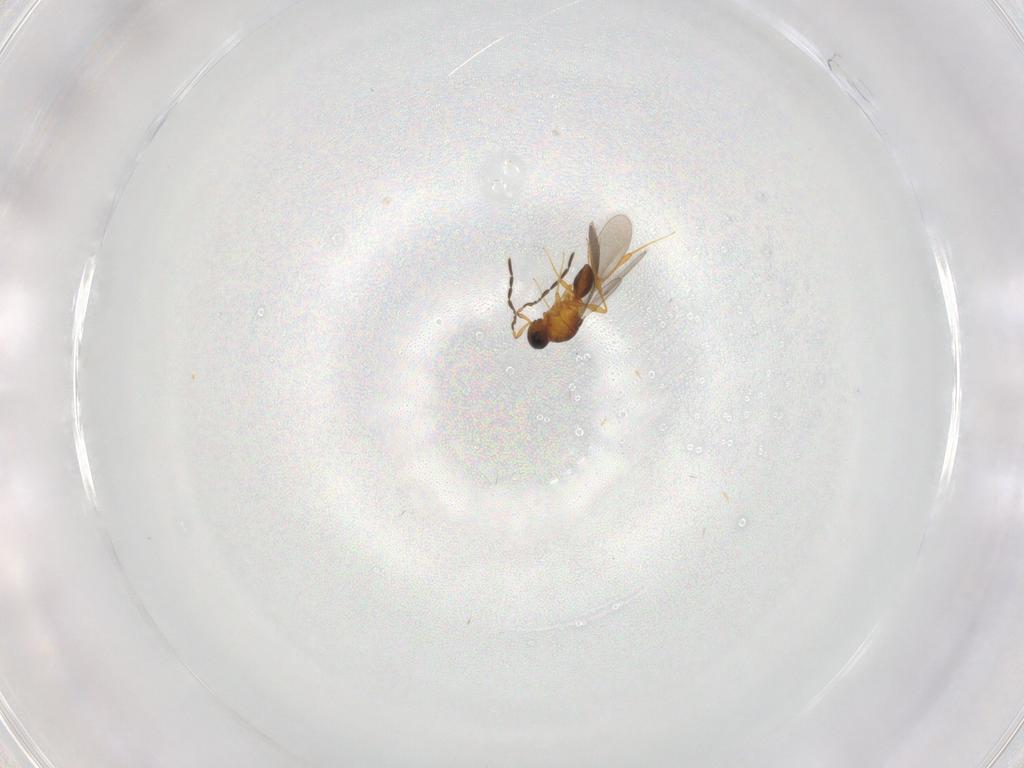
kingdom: Animalia
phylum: Arthropoda
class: Insecta
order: Hymenoptera
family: Platygastridae
